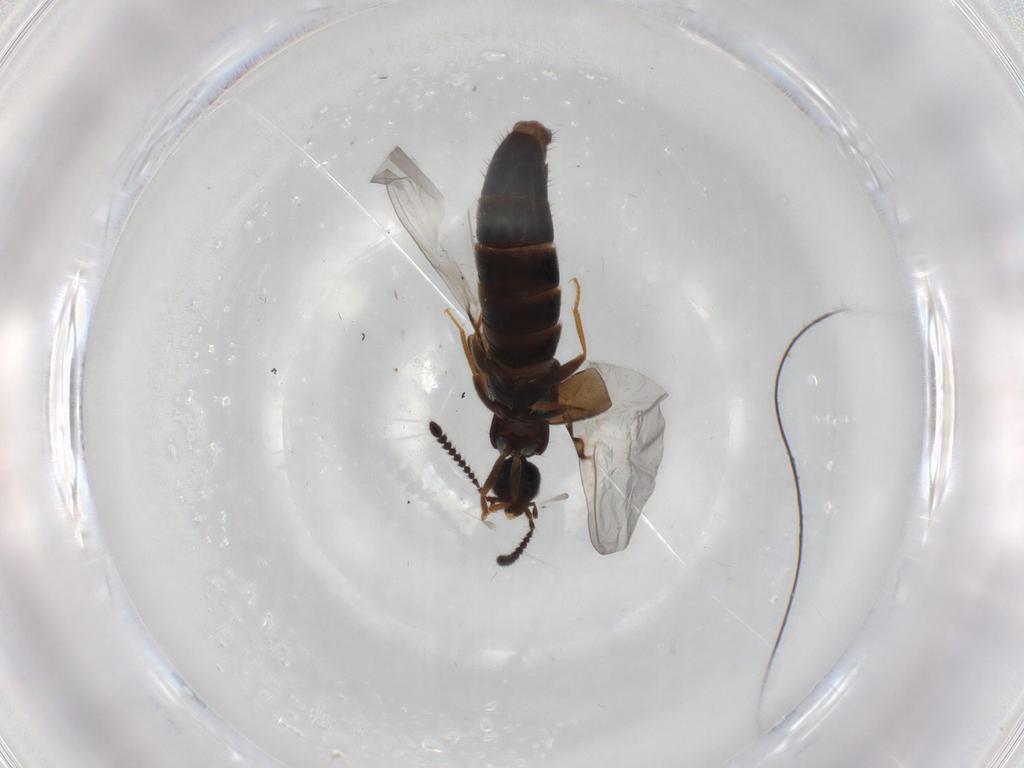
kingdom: Animalia
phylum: Arthropoda
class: Insecta
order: Coleoptera
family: Staphylinidae
